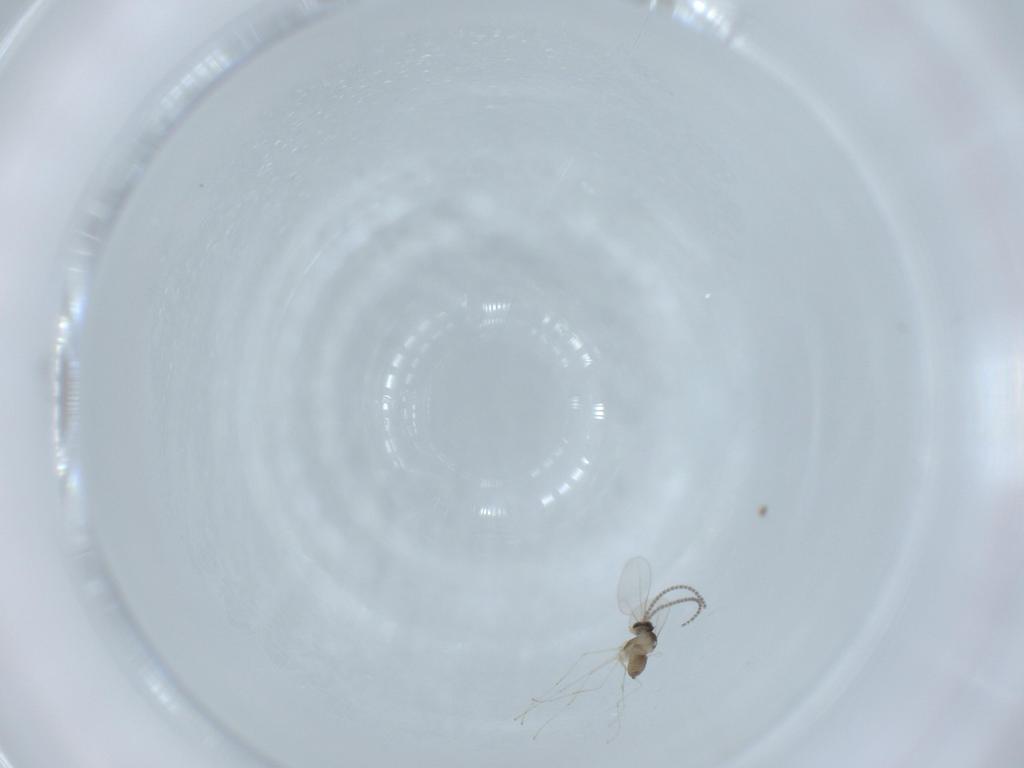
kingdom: Animalia
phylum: Arthropoda
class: Insecta
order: Diptera
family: Cecidomyiidae
